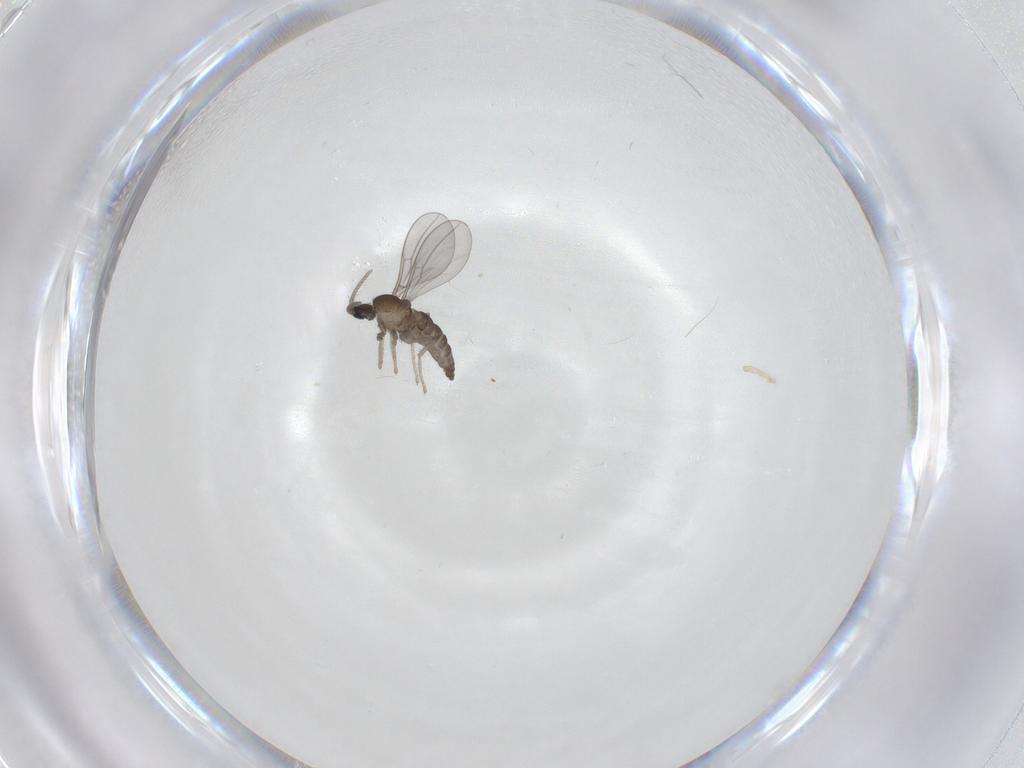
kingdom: Animalia
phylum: Arthropoda
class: Insecta
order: Diptera
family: Cecidomyiidae
